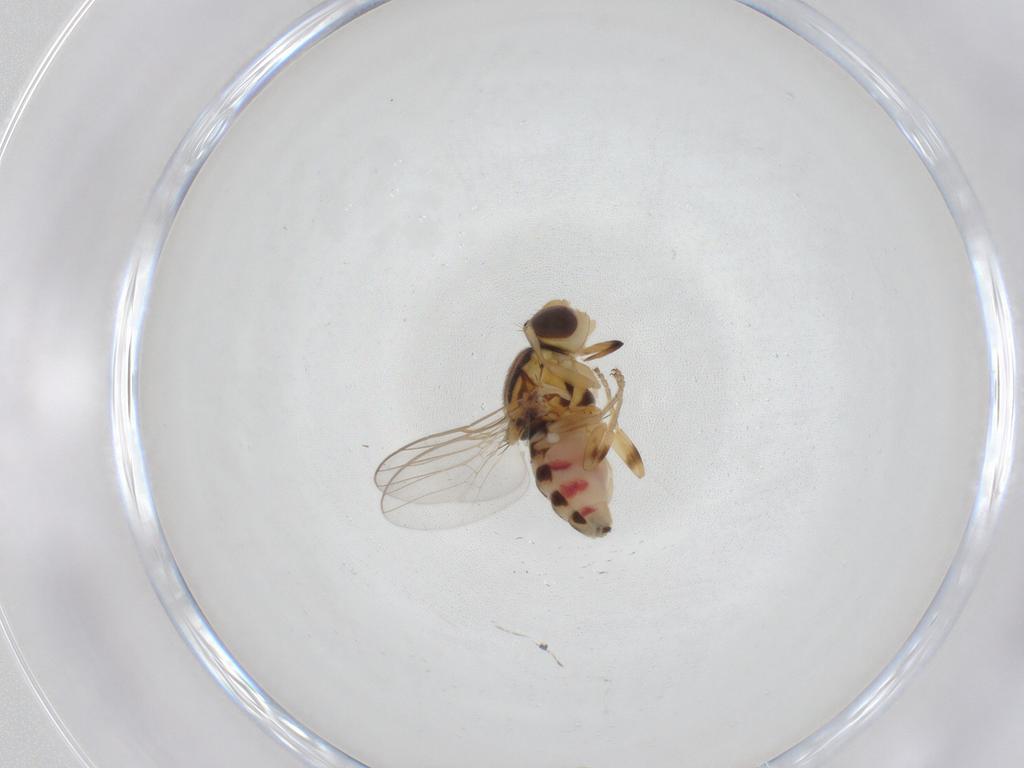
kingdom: Animalia
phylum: Arthropoda
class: Insecta
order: Diptera
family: Chloropidae
